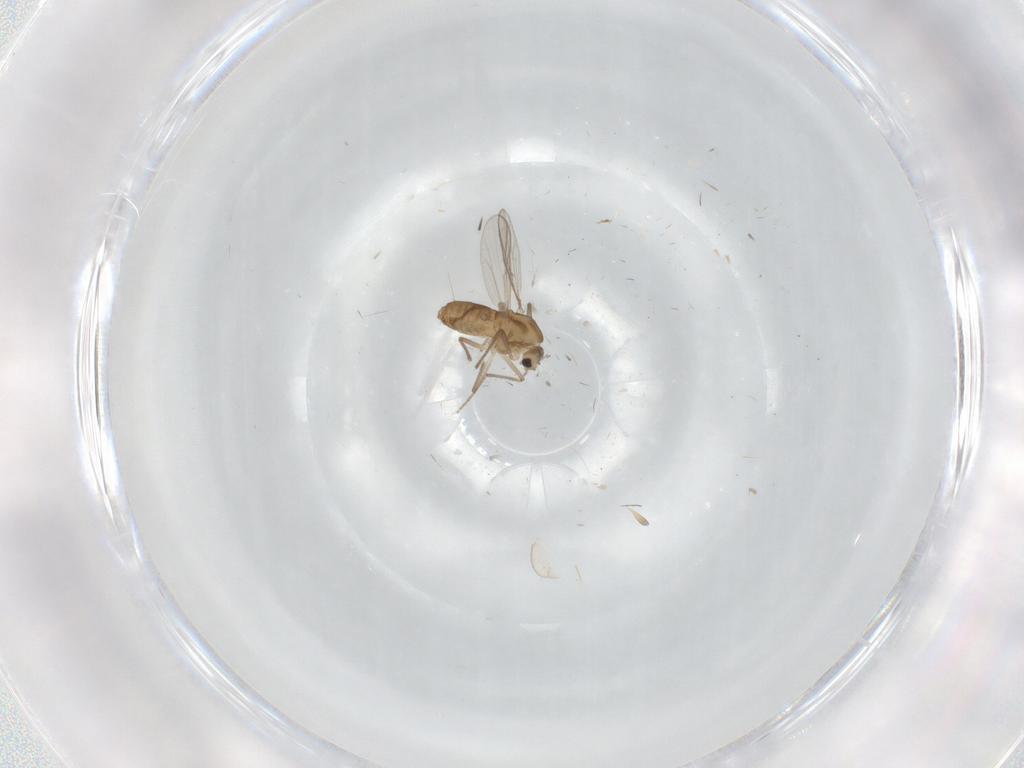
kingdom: Animalia
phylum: Arthropoda
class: Insecta
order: Diptera
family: Chironomidae
